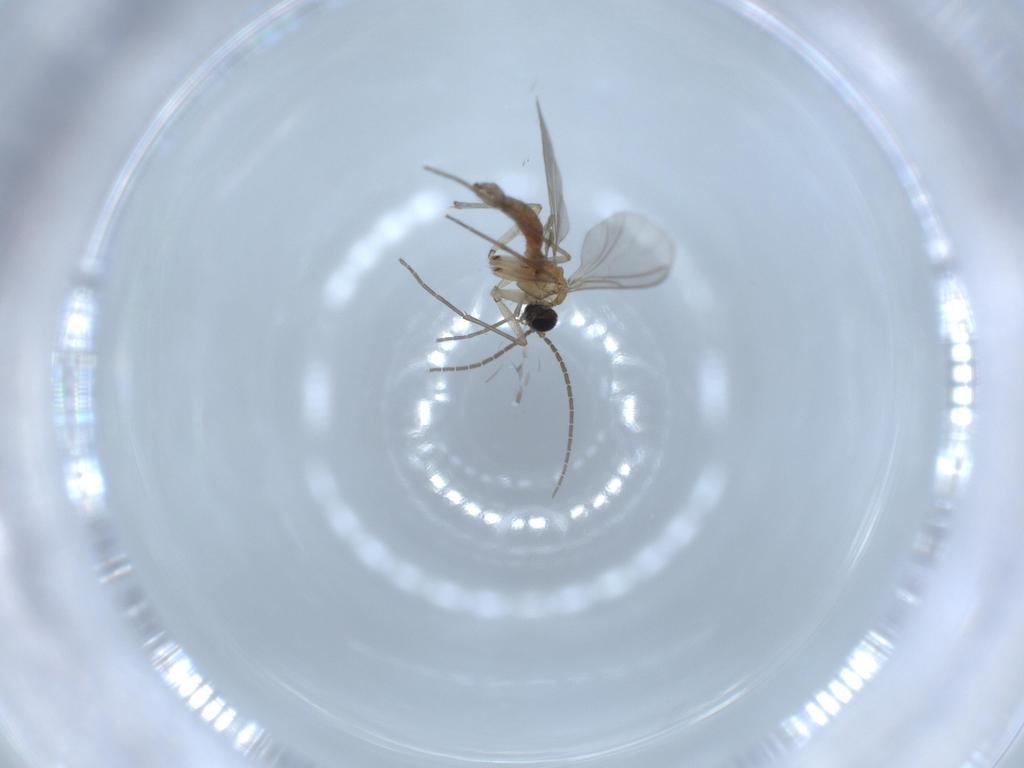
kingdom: Animalia
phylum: Arthropoda
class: Insecta
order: Diptera
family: Sciaridae
